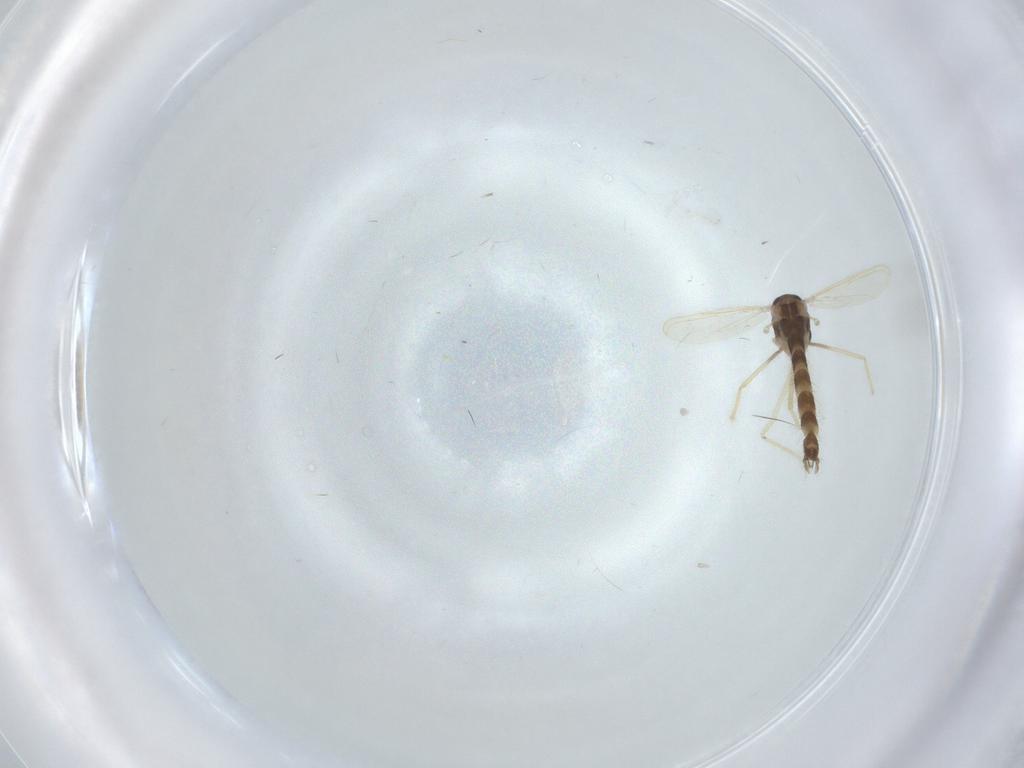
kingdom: Animalia
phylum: Arthropoda
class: Insecta
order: Diptera
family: Chironomidae
